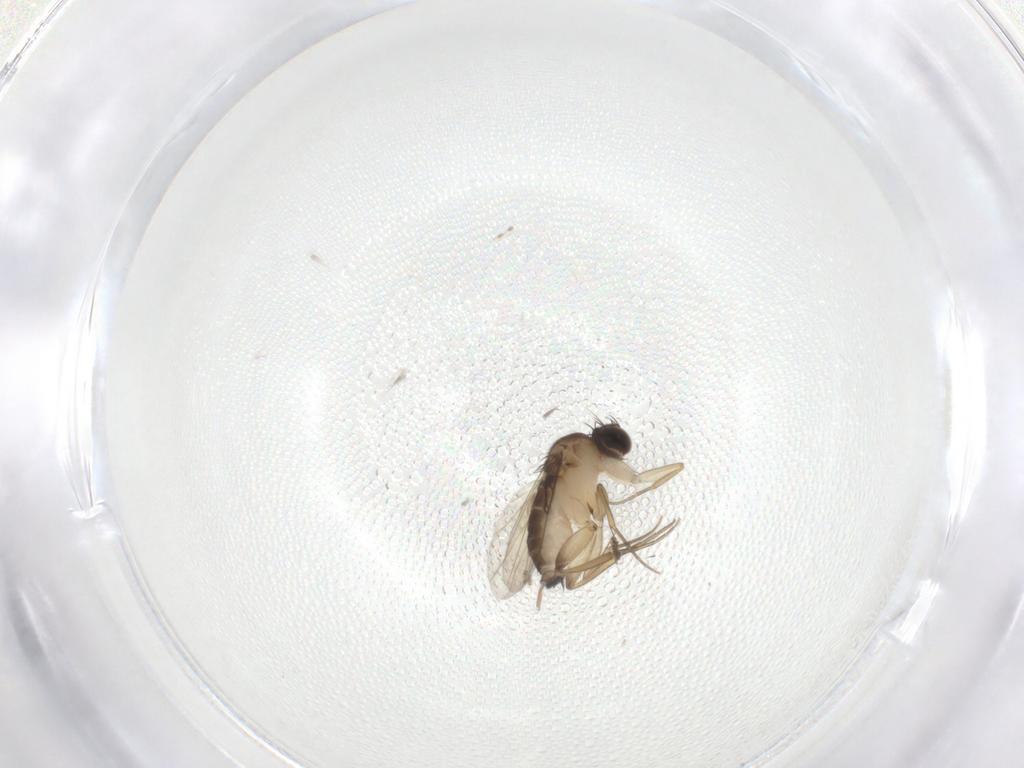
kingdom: Animalia
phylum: Arthropoda
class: Insecta
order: Diptera
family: Phoridae
